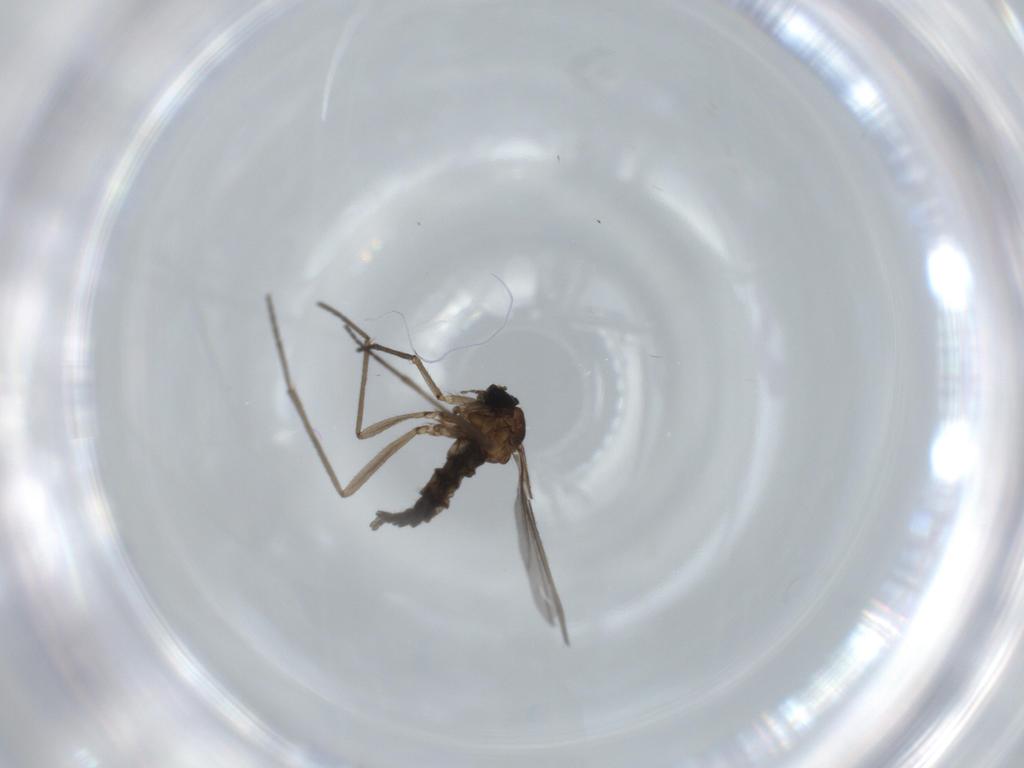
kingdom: Animalia
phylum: Arthropoda
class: Insecta
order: Diptera
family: Sciaridae
